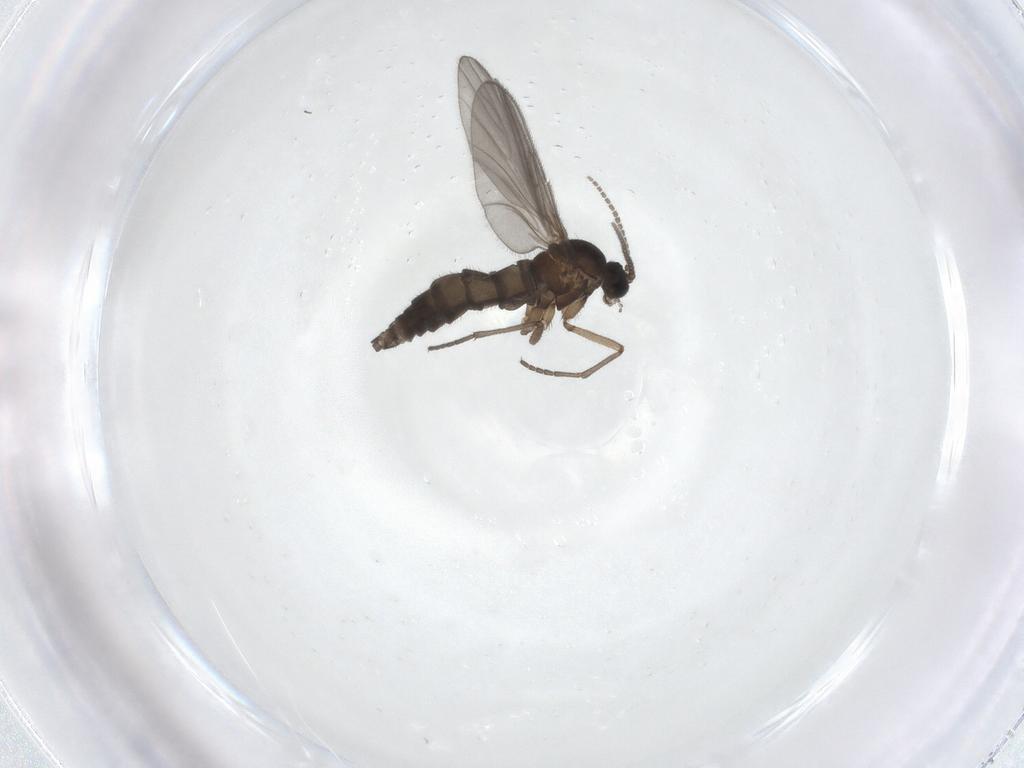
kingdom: Animalia
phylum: Arthropoda
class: Insecta
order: Diptera
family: Sciaridae
